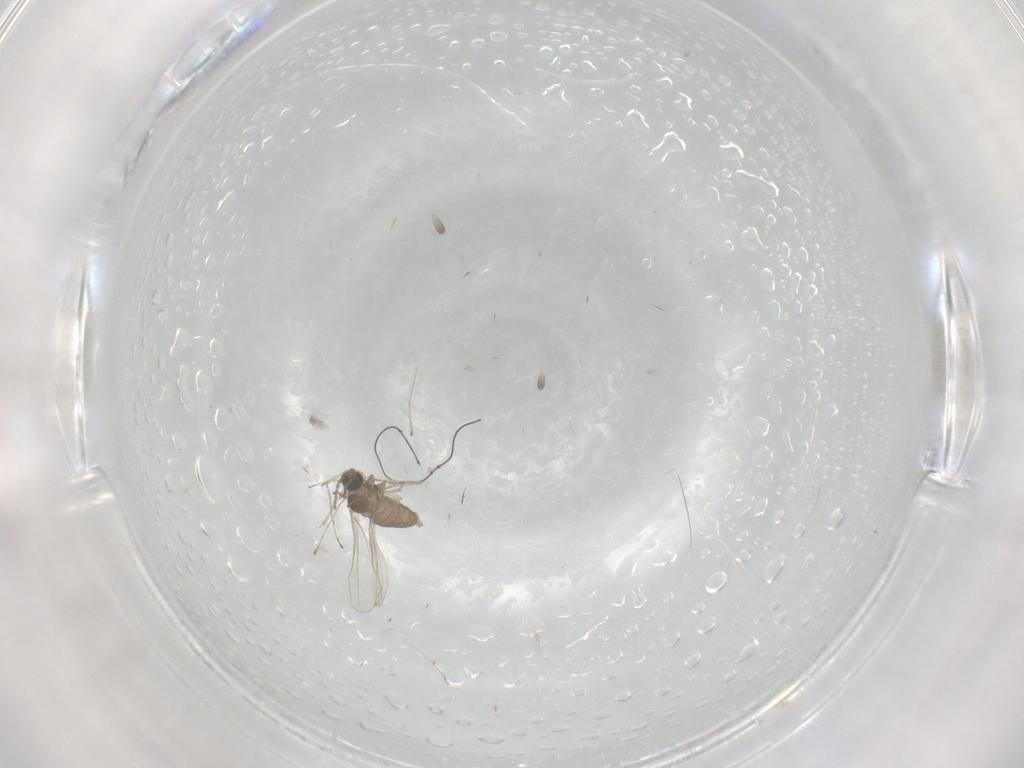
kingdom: Animalia
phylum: Arthropoda
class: Insecta
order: Diptera
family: Cecidomyiidae
